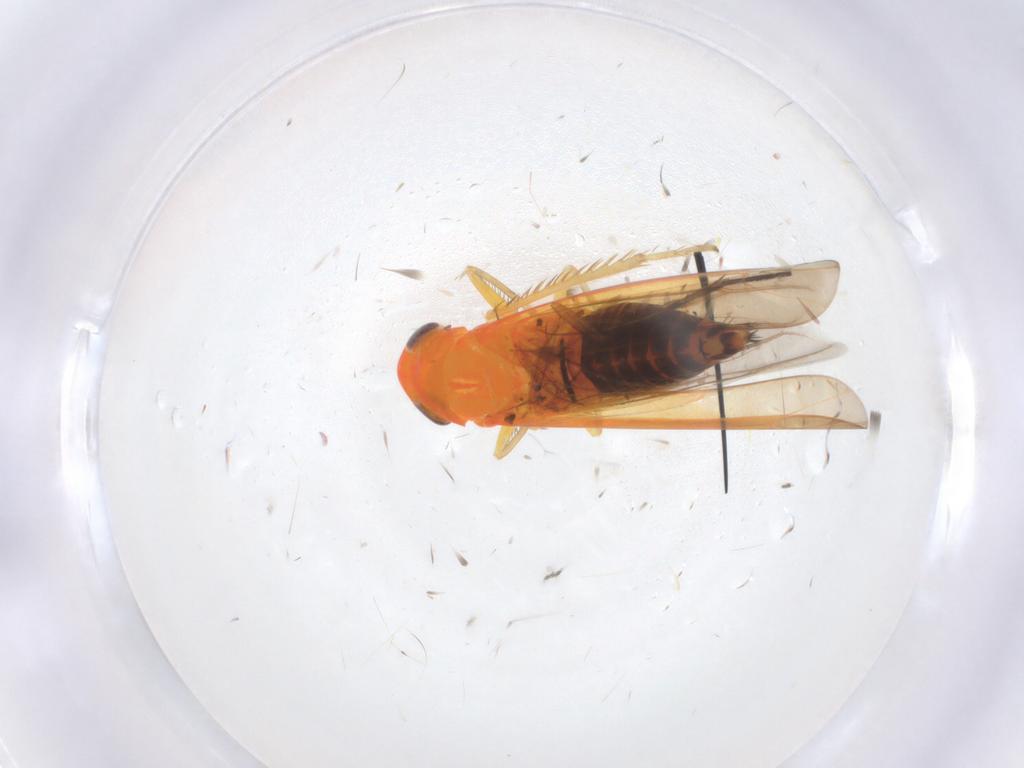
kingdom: Animalia
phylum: Arthropoda
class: Insecta
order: Hemiptera
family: Cicadellidae
